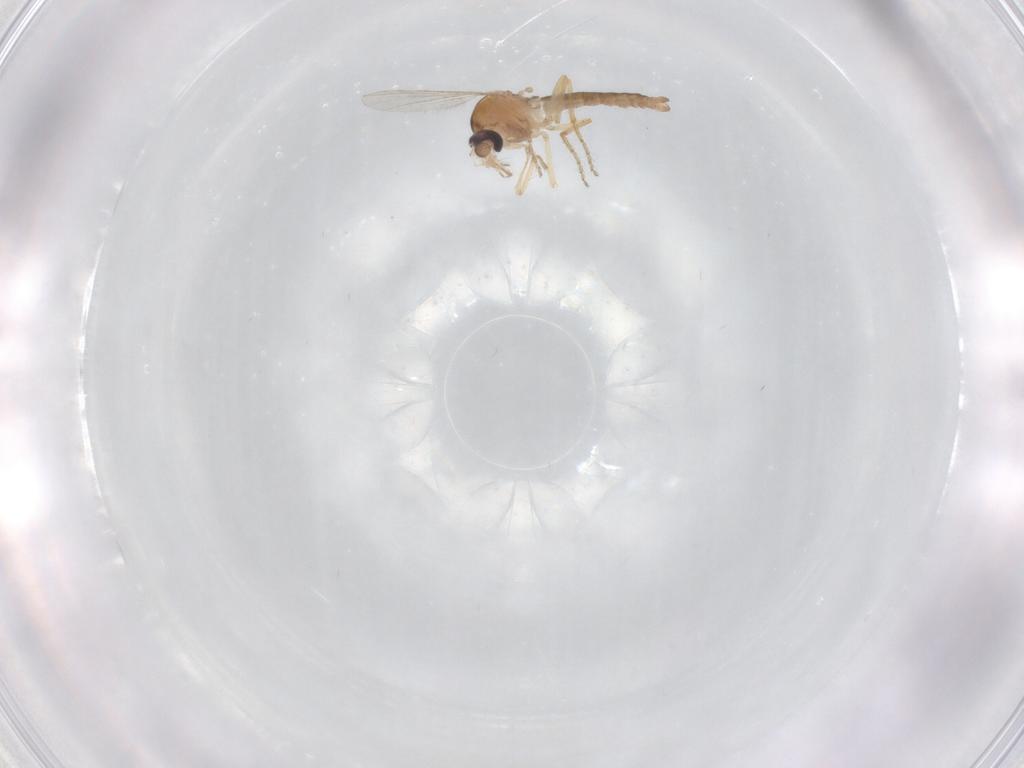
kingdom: Animalia
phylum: Arthropoda
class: Insecta
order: Diptera
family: Ceratopogonidae
